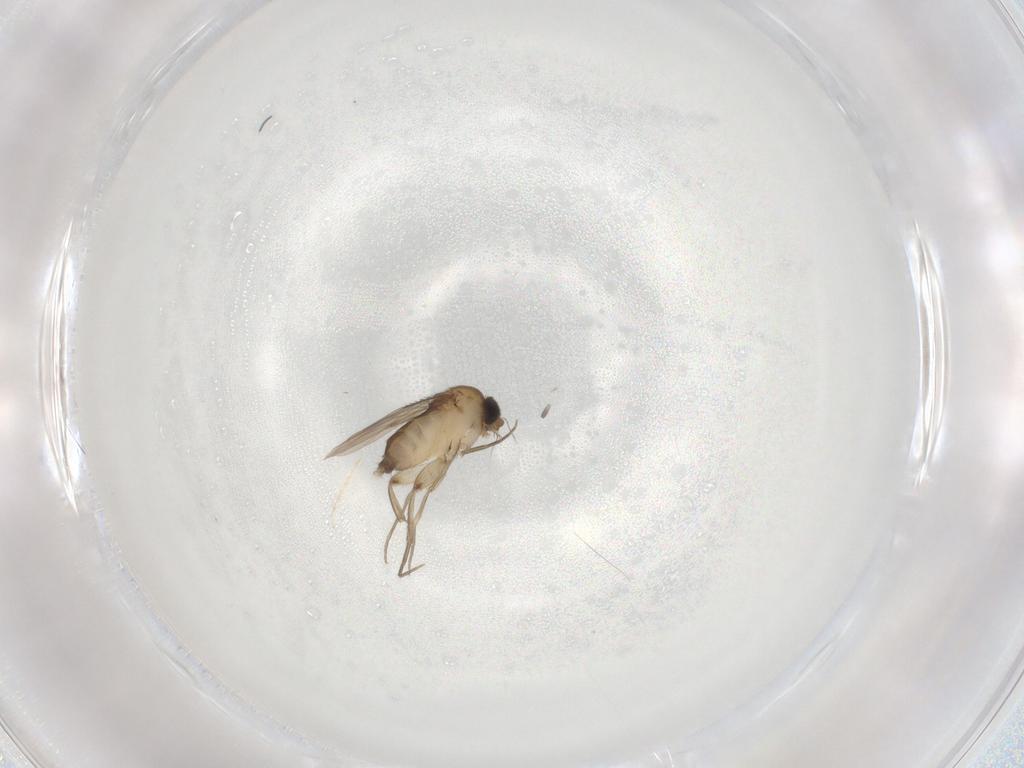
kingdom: Animalia
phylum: Arthropoda
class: Insecta
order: Diptera
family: Phoridae
